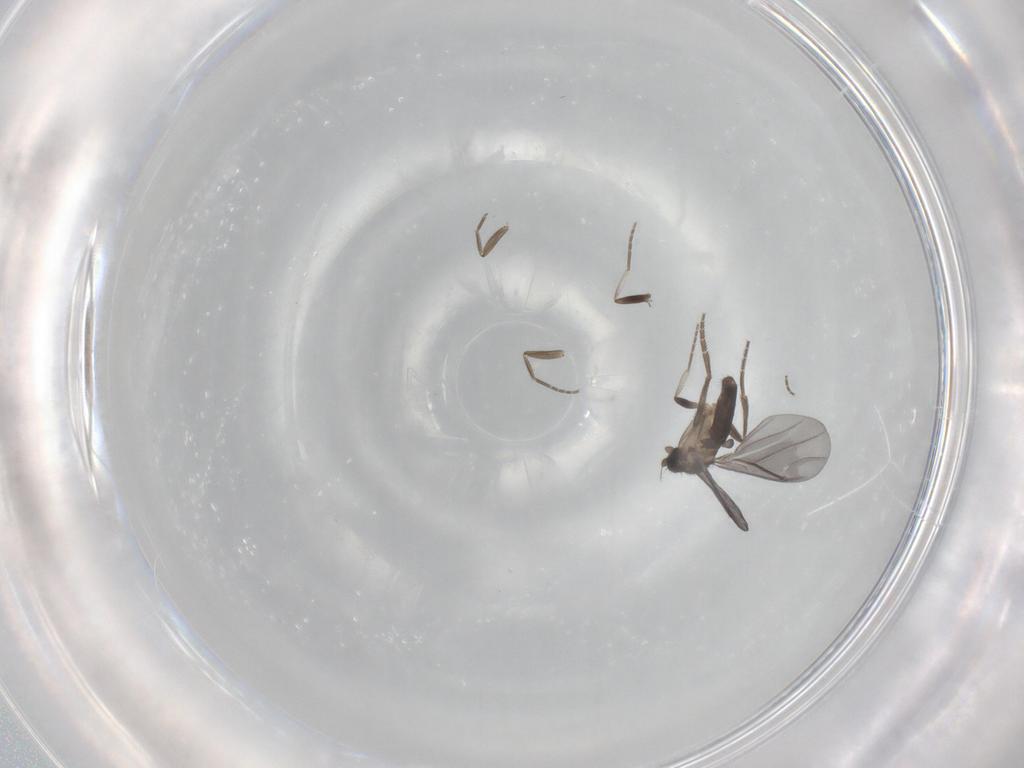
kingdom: Animalia
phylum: Arthropoda
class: Insecta
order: Diptera
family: Phoridae
